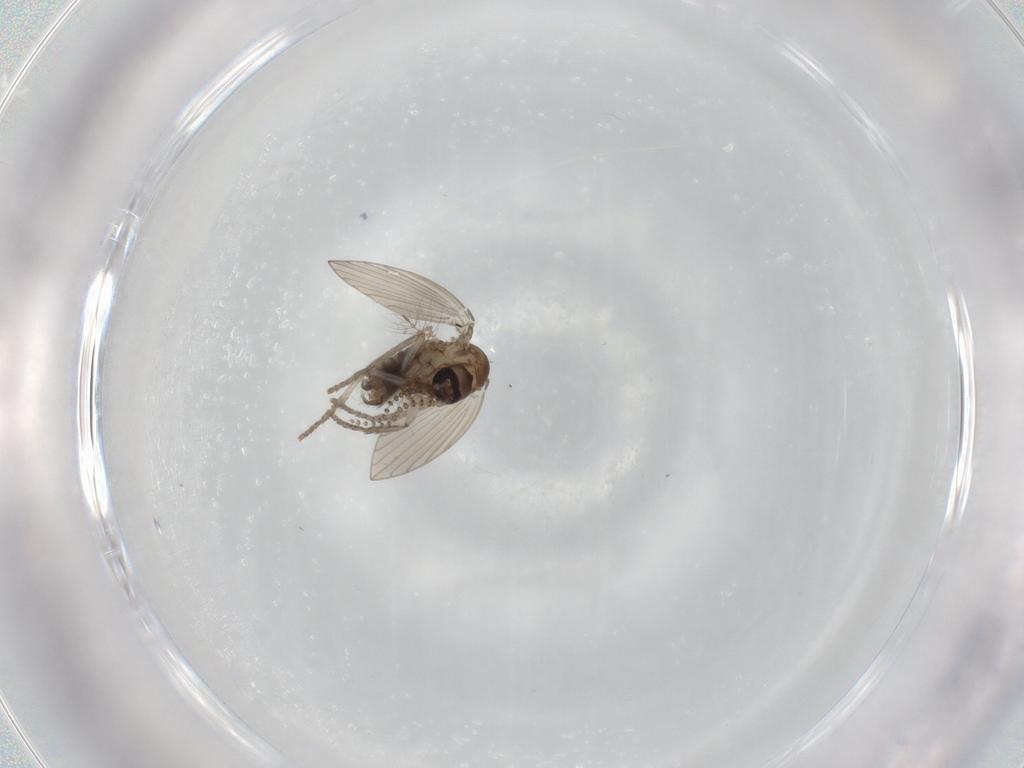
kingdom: Animalia
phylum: Arthropoda
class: Insecta
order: Diptera
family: Psychodidae
